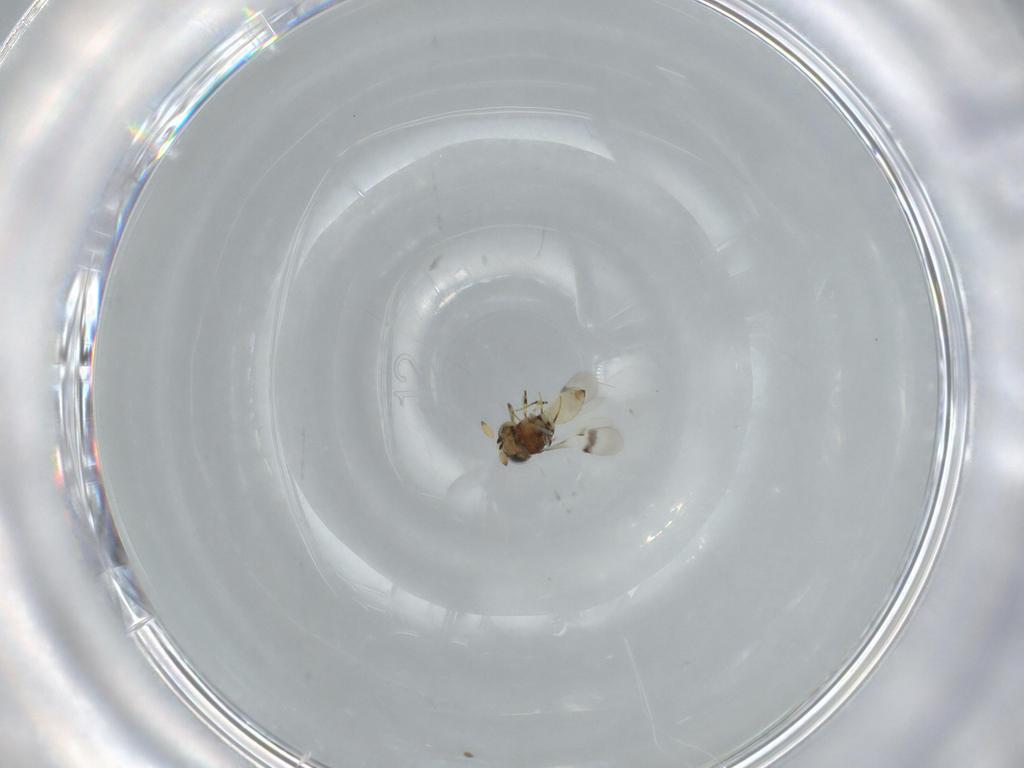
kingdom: Animalia
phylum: Arthropoda
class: Insecta
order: Hymenoptera
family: Scelionidae
